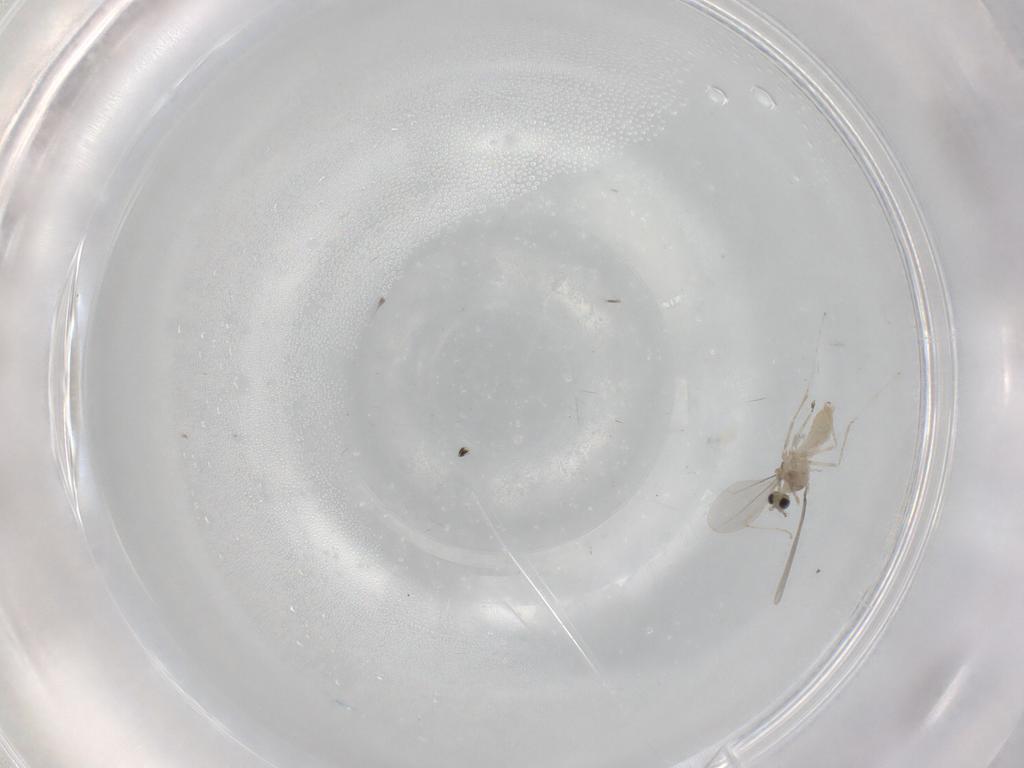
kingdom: Animalia
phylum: Arthropoda
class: Insecta
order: Diptera
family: Cecidomyiidae
